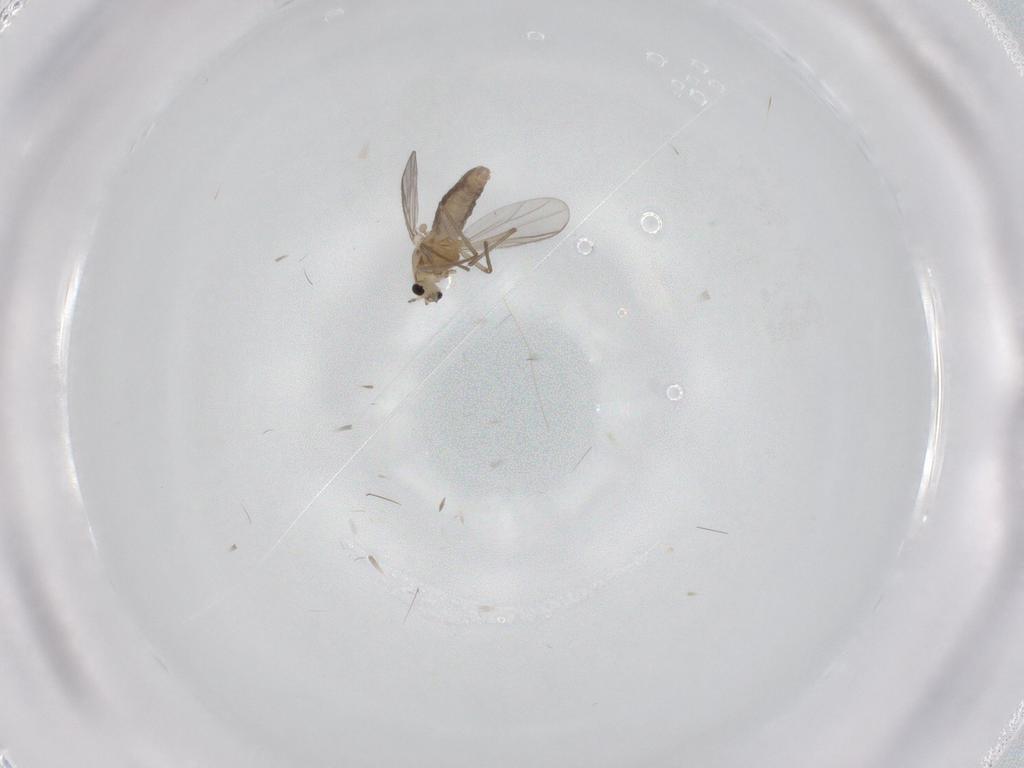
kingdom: Animalia
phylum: Arthropoda
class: Insecta
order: Diptera
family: Chironomidae
